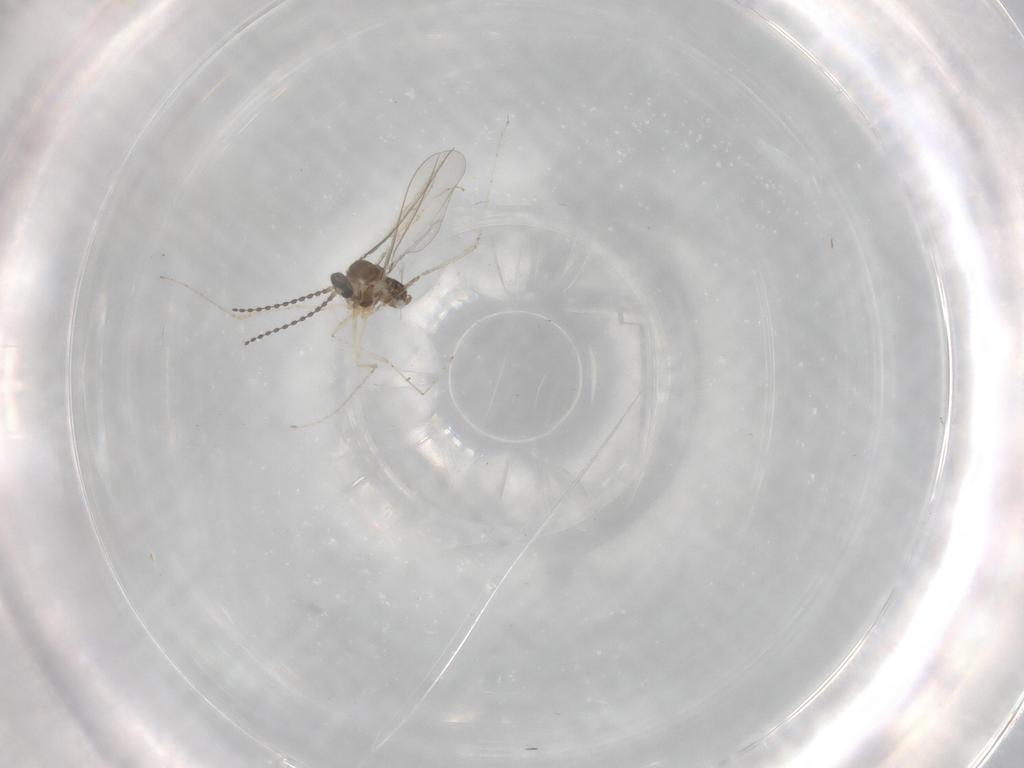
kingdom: Animalia
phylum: Arthropoda
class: Insecta
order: Diptera
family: Cecidomyiidae
